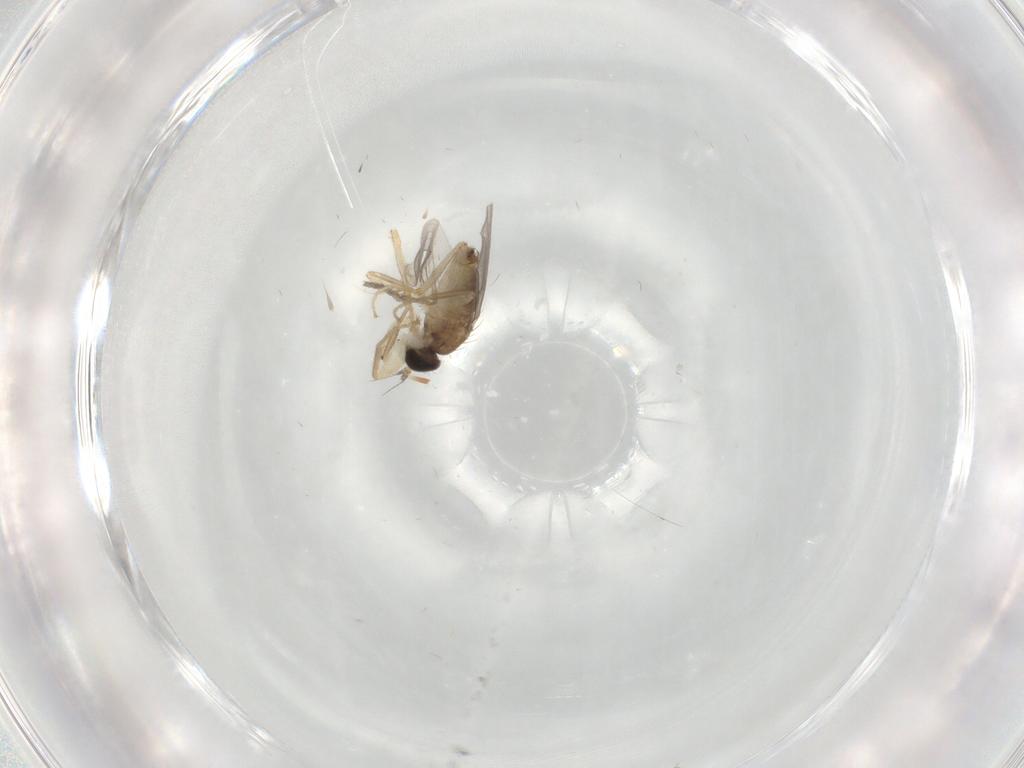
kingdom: Animalia
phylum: Arthropoda
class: Insecta
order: Diptera
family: Hybotidae
